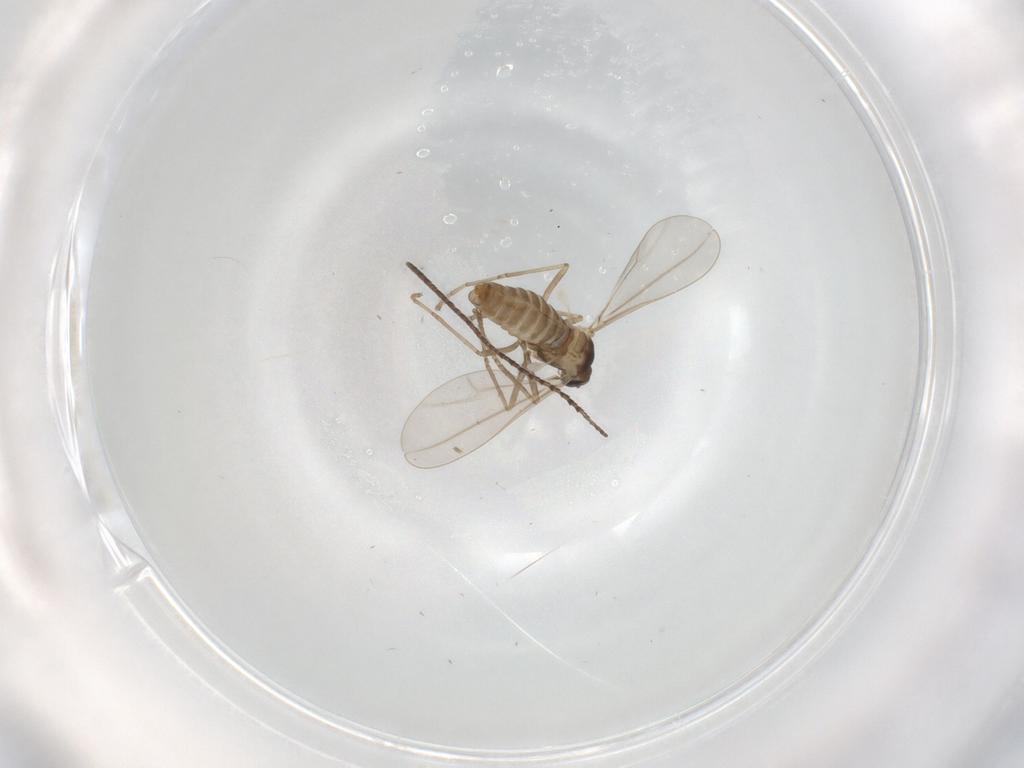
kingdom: Animalia
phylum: Arthropoda
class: Insecta
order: Diptera
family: Cecidomyiidae
